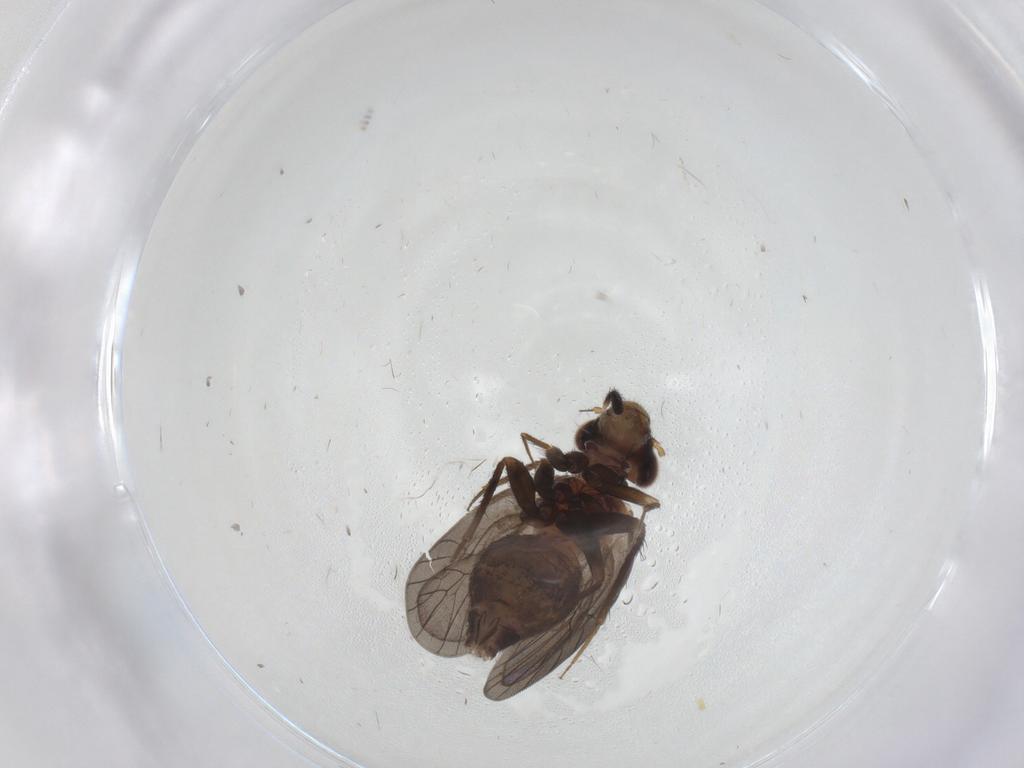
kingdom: Animalia
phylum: Arthropoda
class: Insecta
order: Psocodea
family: Lepidopsocidae
